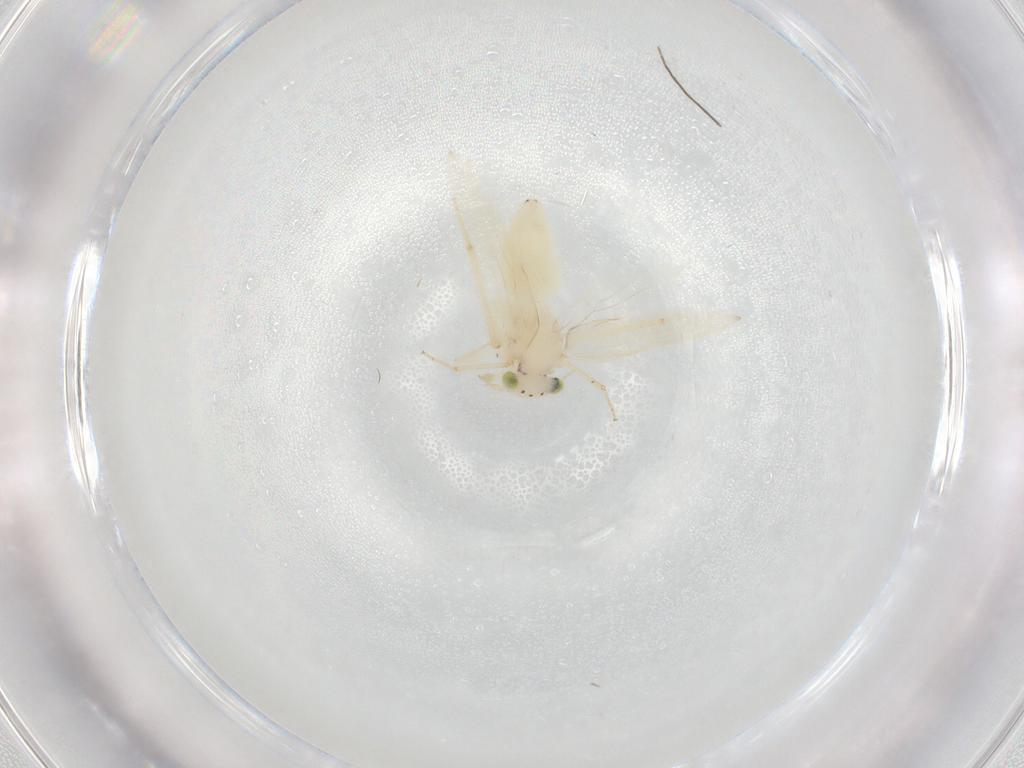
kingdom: Animalia
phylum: Arthropoda
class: Insecta
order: Psocodea
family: Lepidopsocidae
